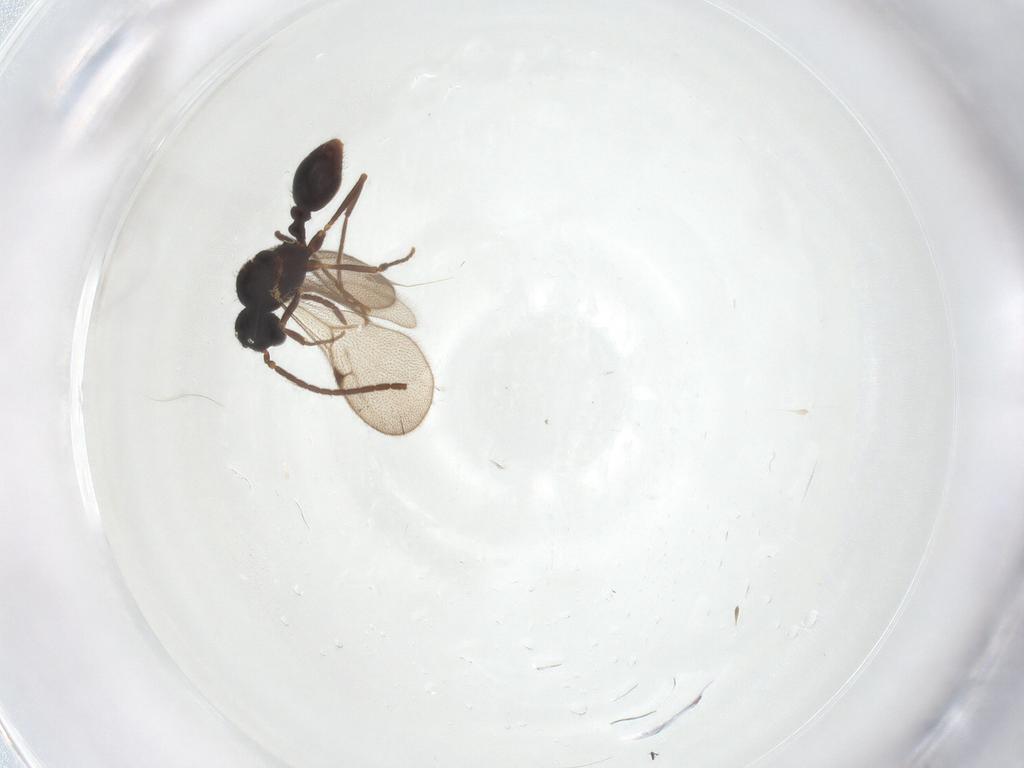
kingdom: Animalia
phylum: Arthropoda
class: Insecta
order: Hymenoptera
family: Formicidae
